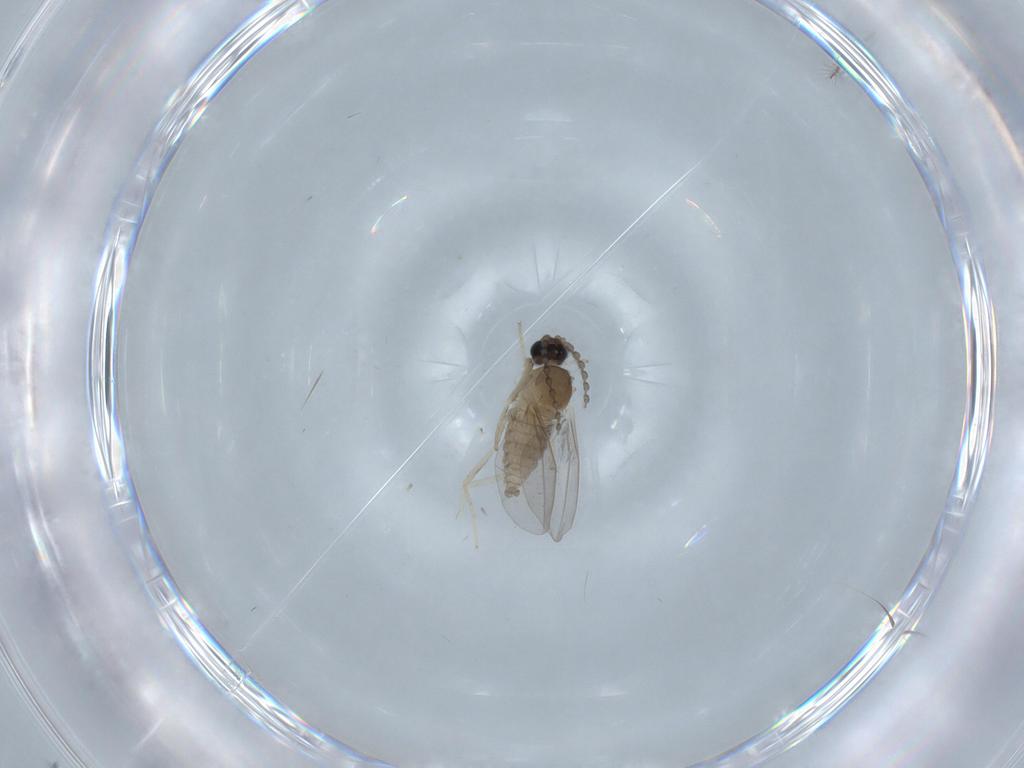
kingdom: Animalia
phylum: Arthropoda
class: Insecta
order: Diptera
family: Cecidomyiidae
